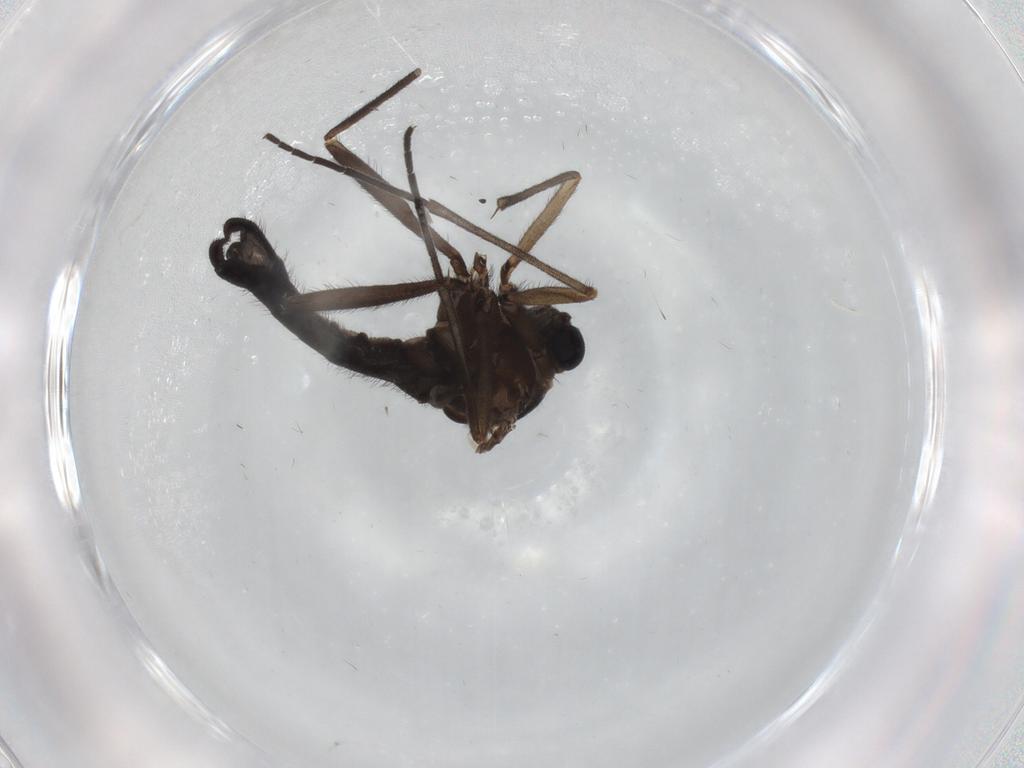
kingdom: Animalia
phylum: Arthropoda
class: Insecta
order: Diptera
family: Sciaridae
